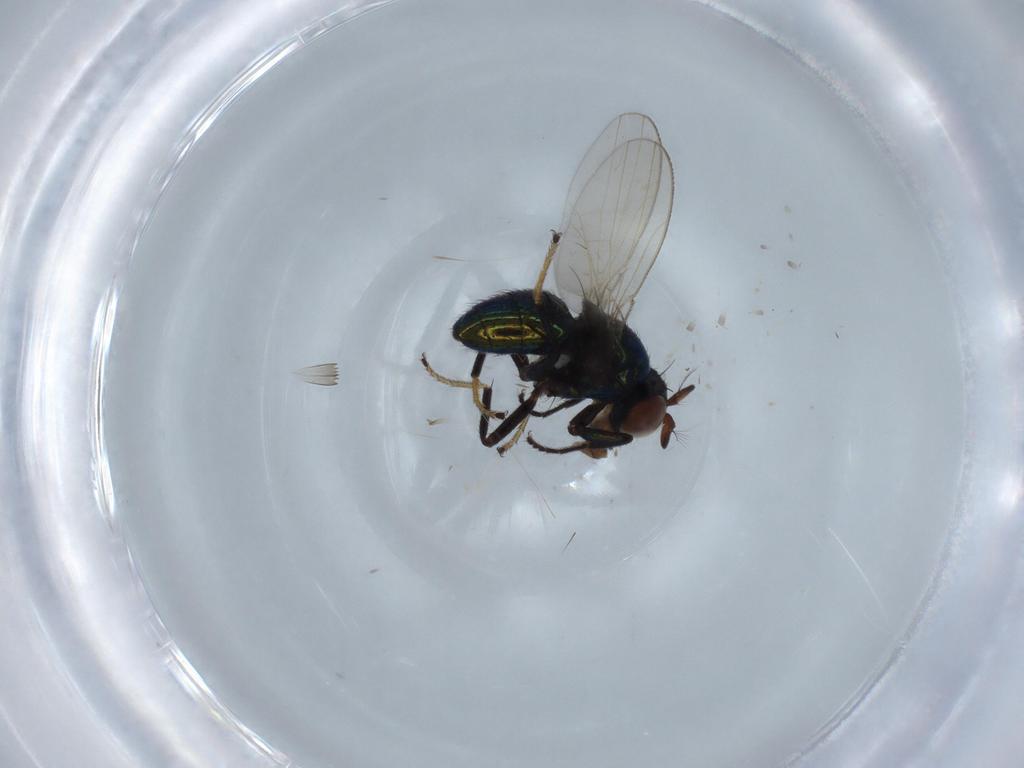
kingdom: Animalia
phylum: Arthropoda
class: Insecta
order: Diptera
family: Ephydridae
